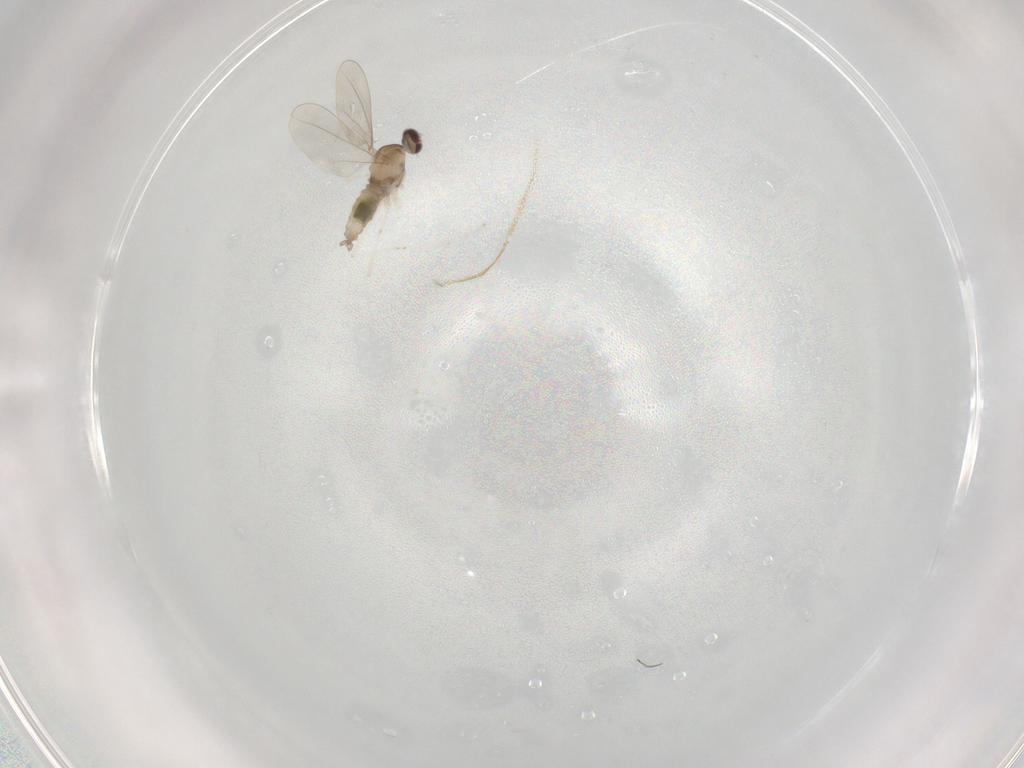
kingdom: Animalia
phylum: Arthropoda
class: Insecta
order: Diptera
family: Cecidomyiidae
